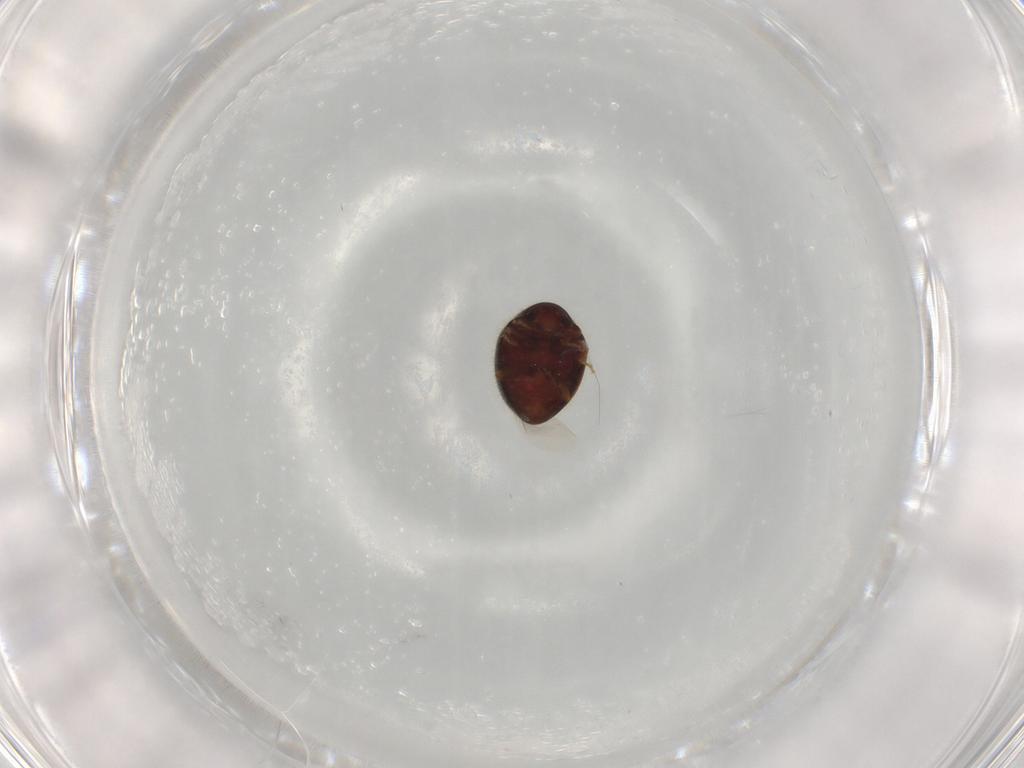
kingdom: Animalia
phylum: Arthropoda
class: Insecta
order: Coleoptera
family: Coccinellidae
